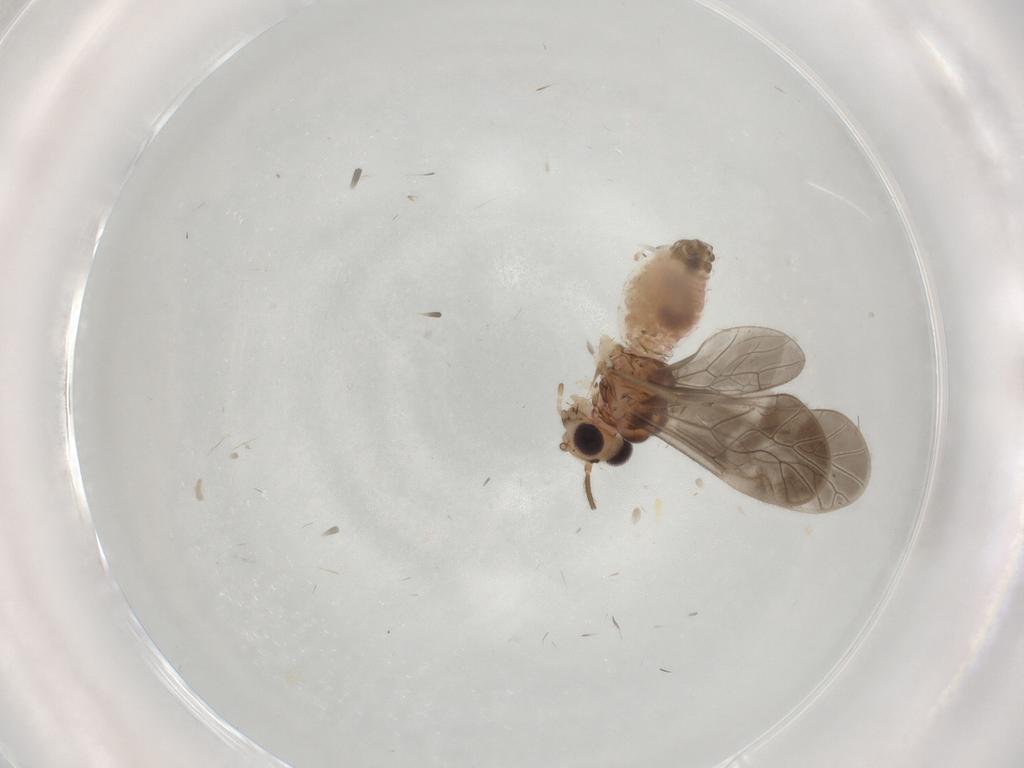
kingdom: Animalia
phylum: Arthropoda
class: Insecta
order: Psocodea
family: Caeciliusidae
